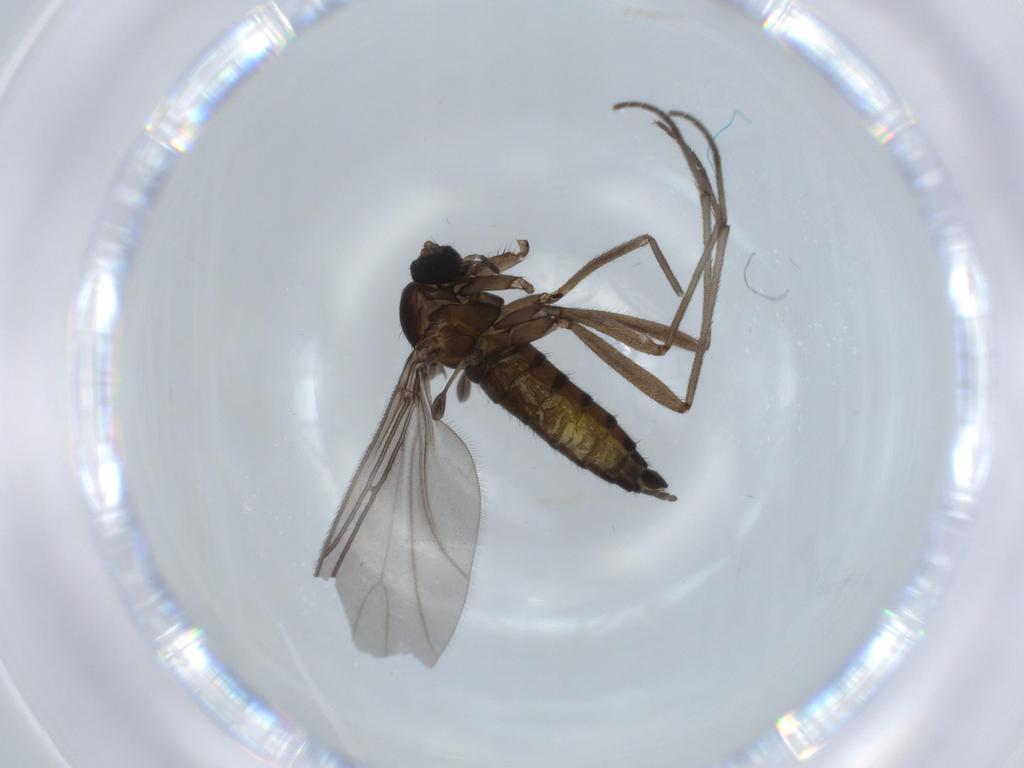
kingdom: Animalia
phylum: Arthropoda
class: Insecta
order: Diptera
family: Sciaridae
